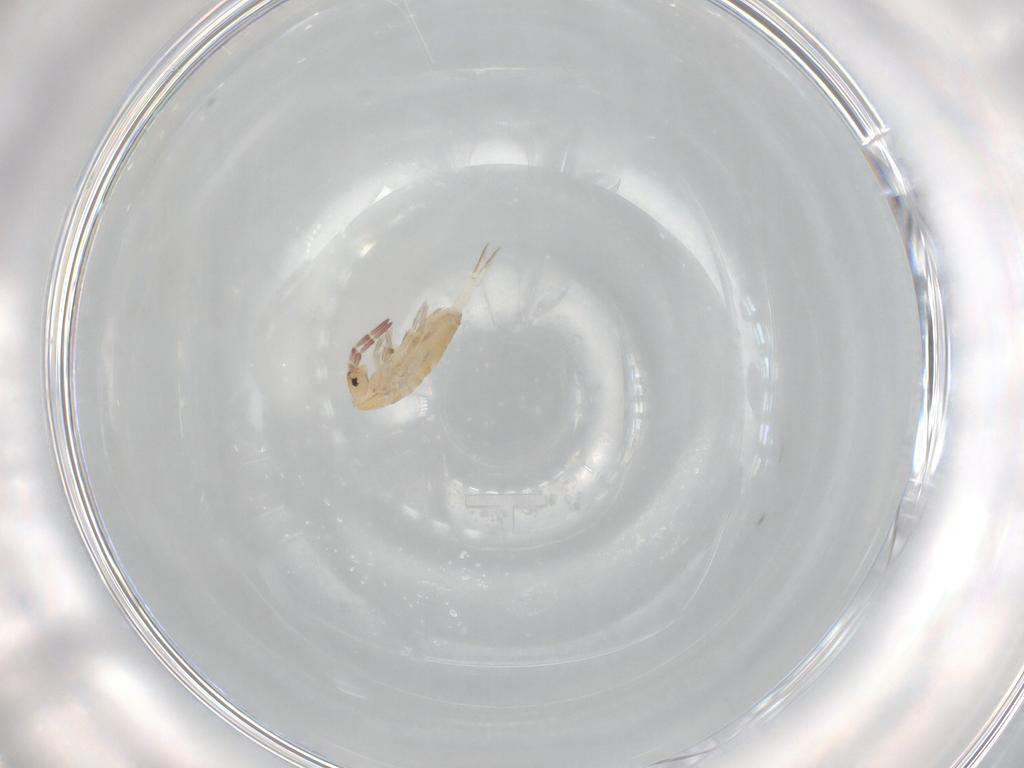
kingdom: Animalia
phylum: Arthropoda
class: Collembola
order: Entomobryomorpha
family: Entomobryidae
